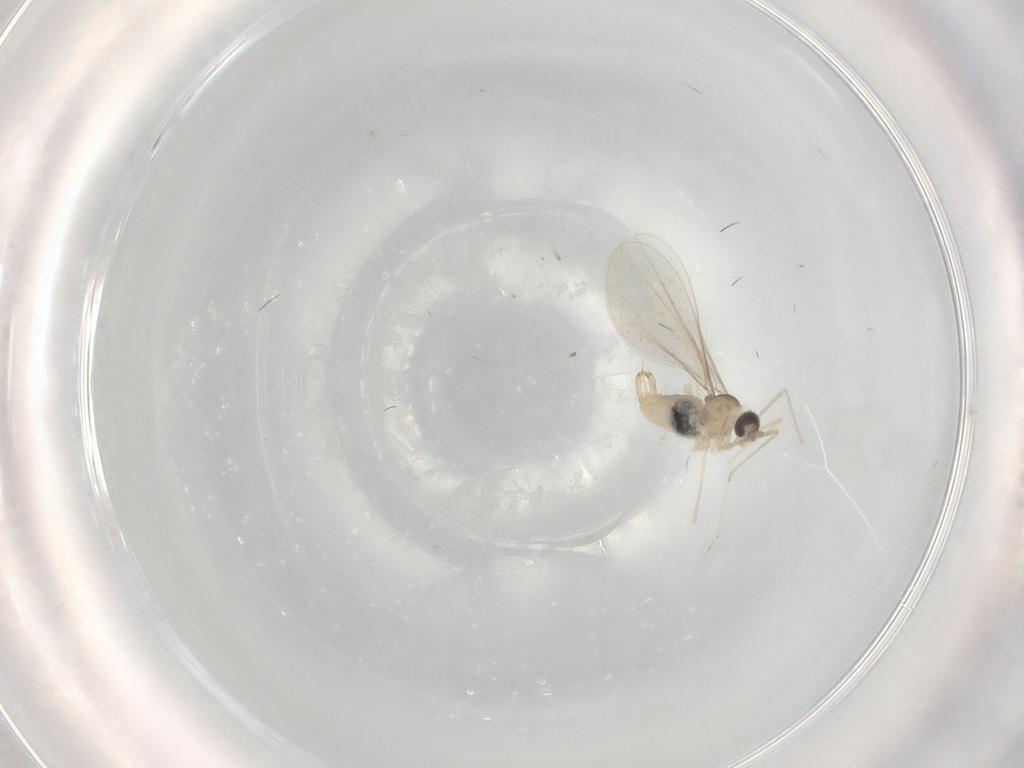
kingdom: Animalia
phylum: Arthropoda
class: Insecta
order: Diptera
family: Cecidomyiidae
